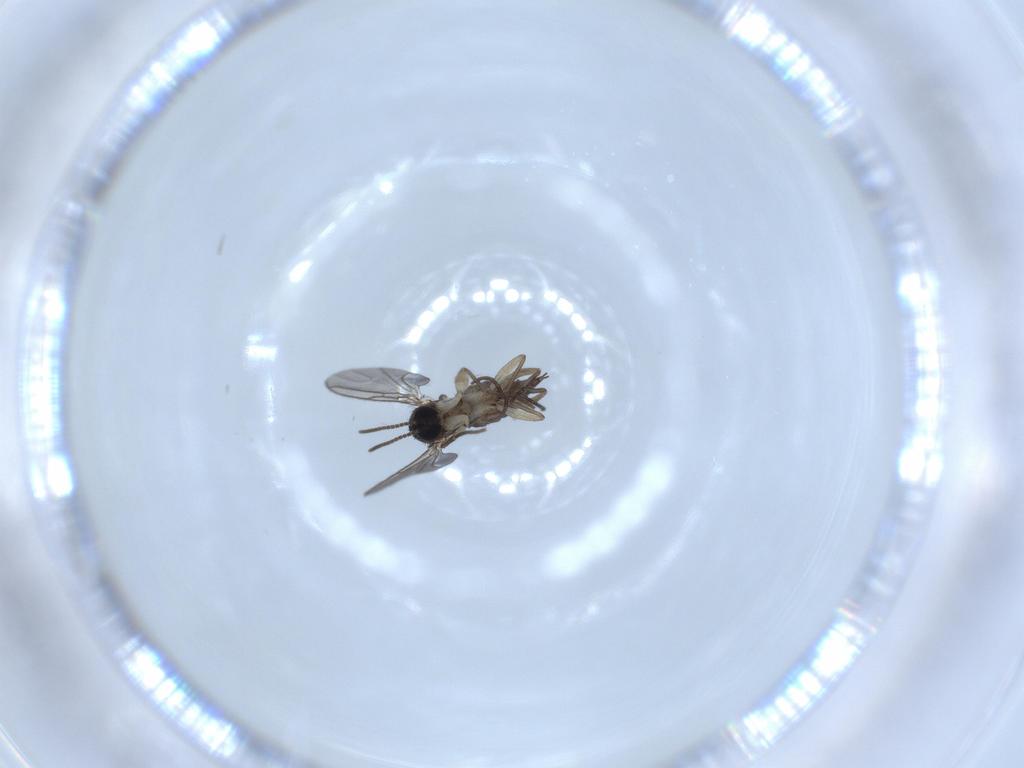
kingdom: Animalia
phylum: Arthropoda
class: Insecta
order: Diptera
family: Sciaridae
